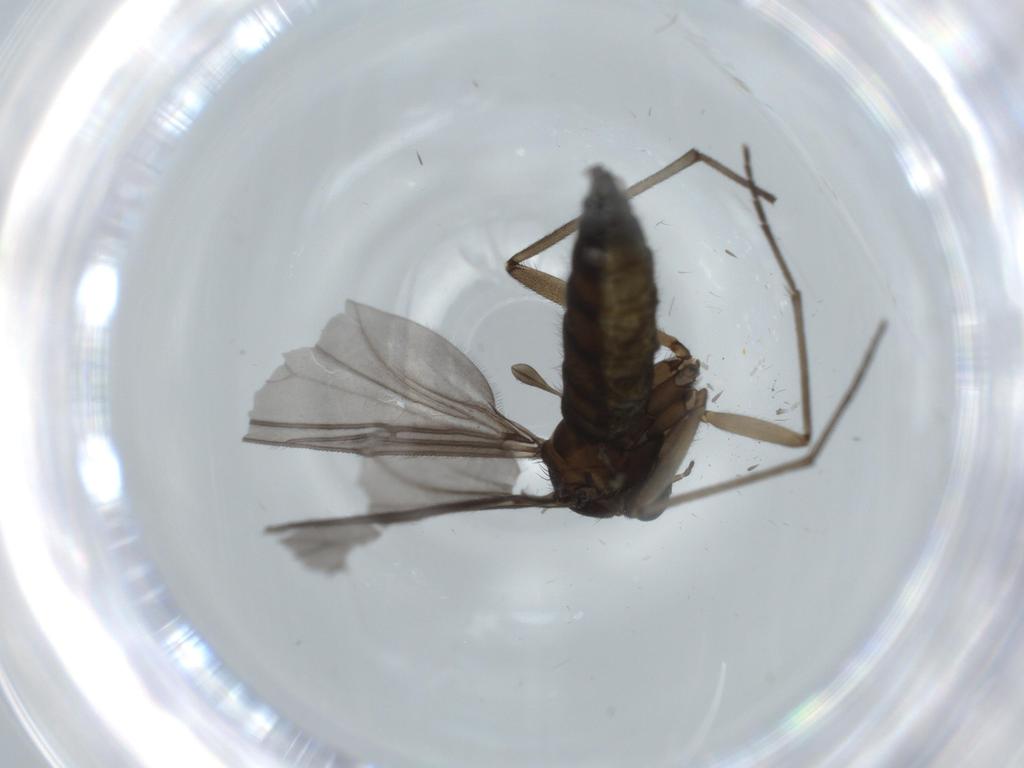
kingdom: Animalia
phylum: Arthropoda
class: Insecta
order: Diptera
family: Sciaridae
